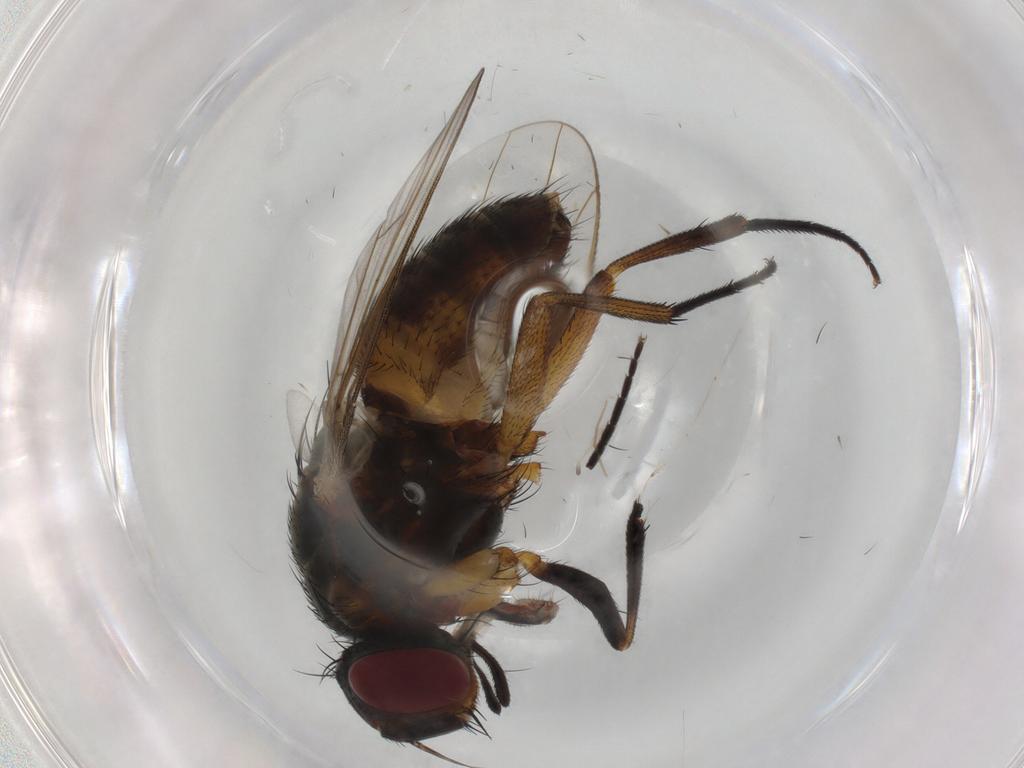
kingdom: Animalia
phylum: Arthropoda
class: Insecta
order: Diptera
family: Muscidae
